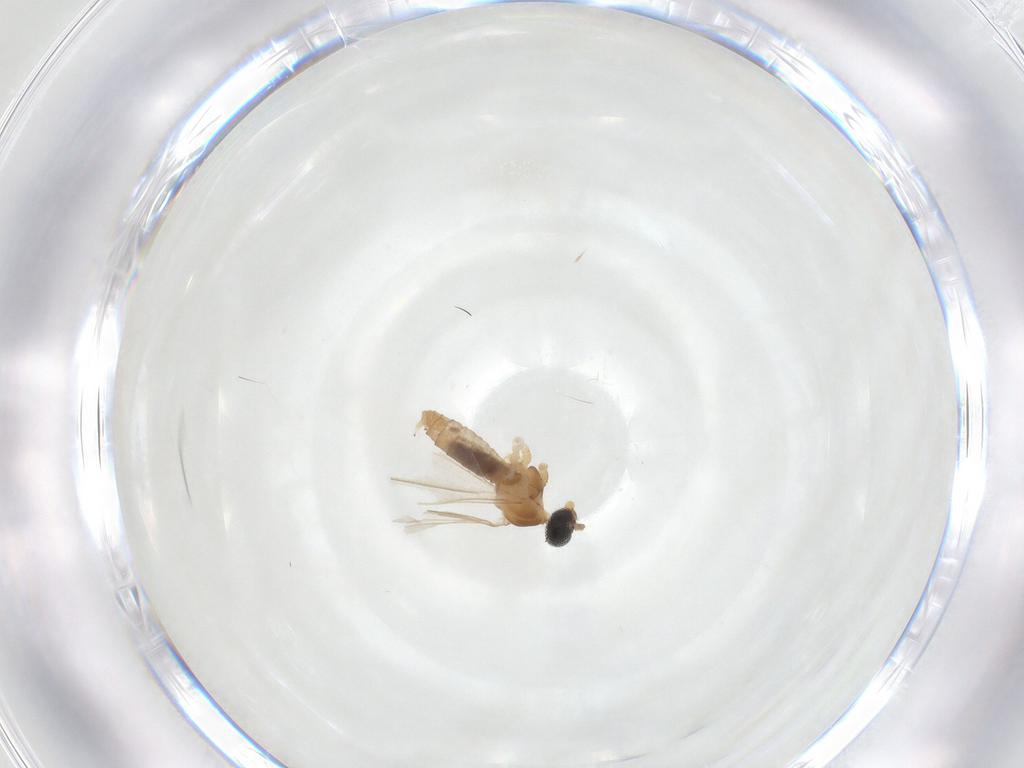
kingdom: Animalia
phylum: Arthropoda
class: Insecta
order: Diptera
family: Cecidomyiidae
